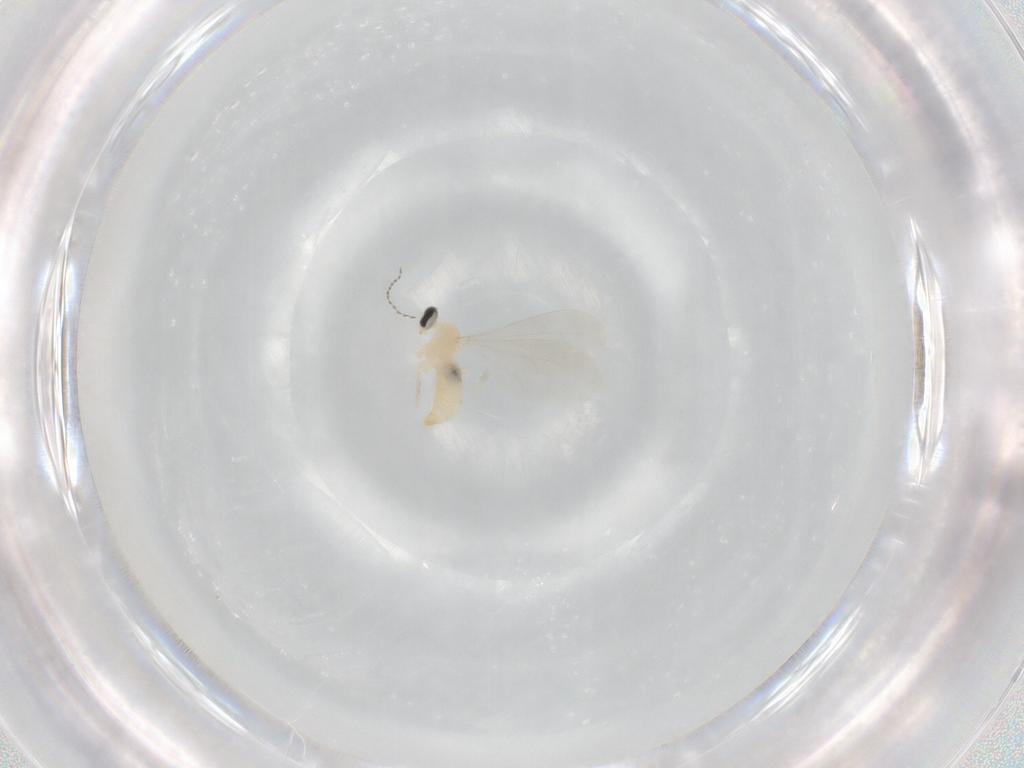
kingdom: Animalia
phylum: Arthropoda
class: Insecta
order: Diptera
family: Cecidomyiidae
